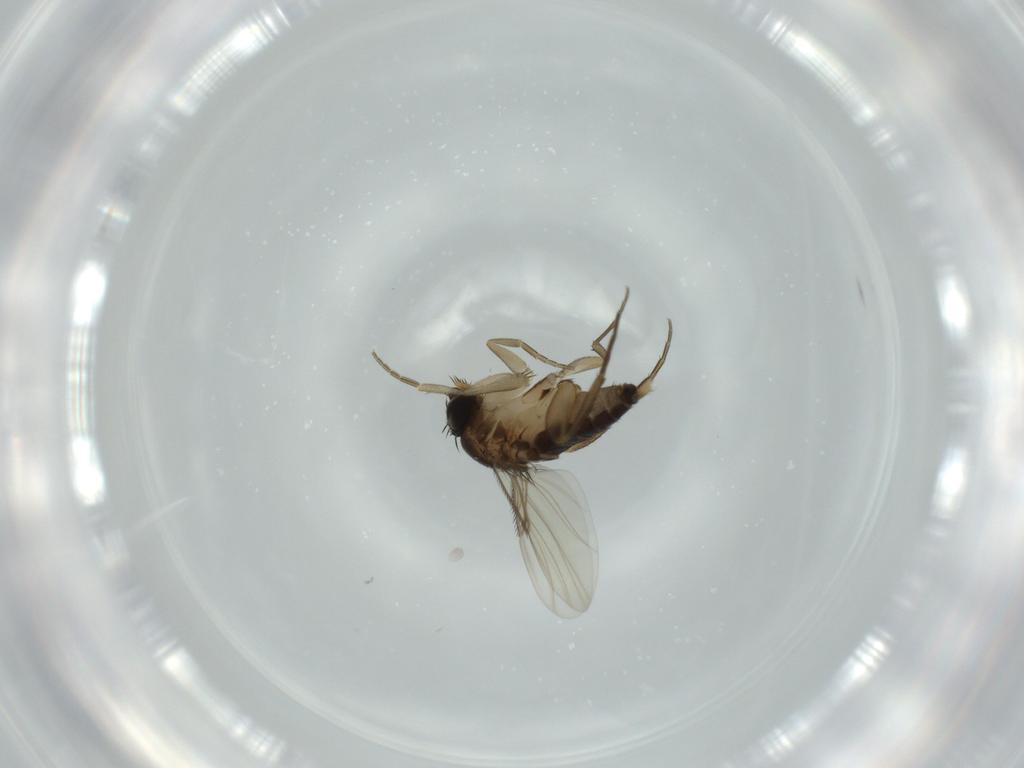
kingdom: Animalia
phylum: Arthropoda
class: Insecta
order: Diptera
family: Phoridae
